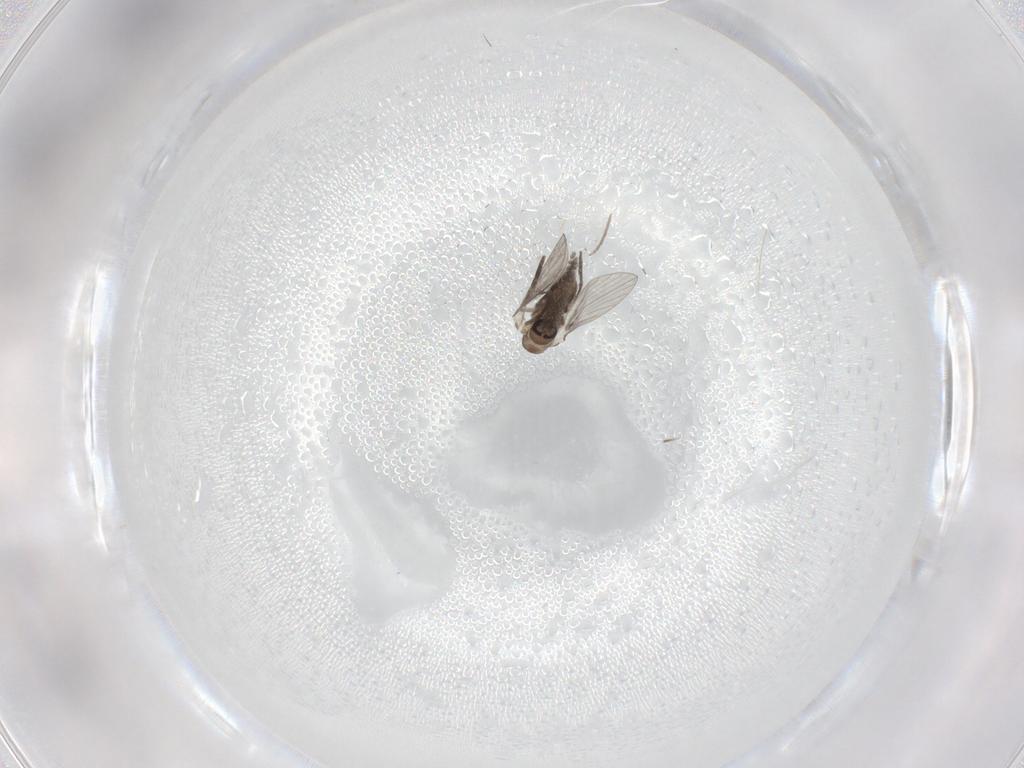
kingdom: Animalia
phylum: Arthropoda
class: Insecta
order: Diptera
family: Psychodidae
